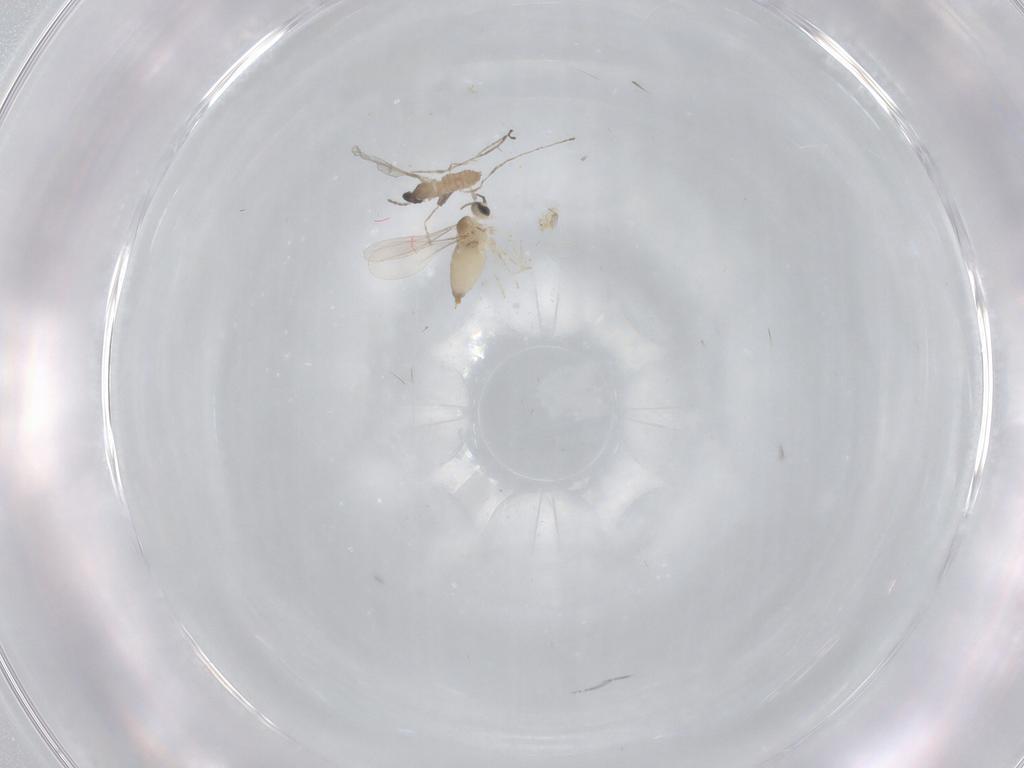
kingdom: Animalia
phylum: Arthropoda
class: Insecta
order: Diptera
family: Cecidomyiidae
